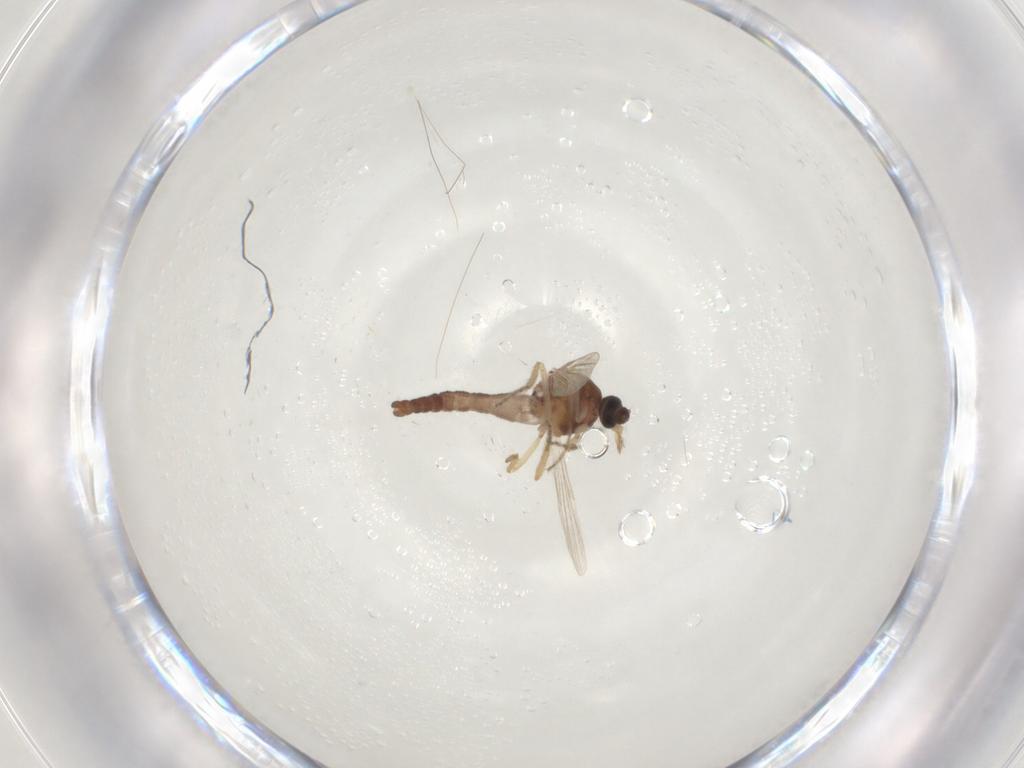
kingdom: Animalia
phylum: Arthropoda
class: Insecta
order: Diptera
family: Ceratopogonidae
